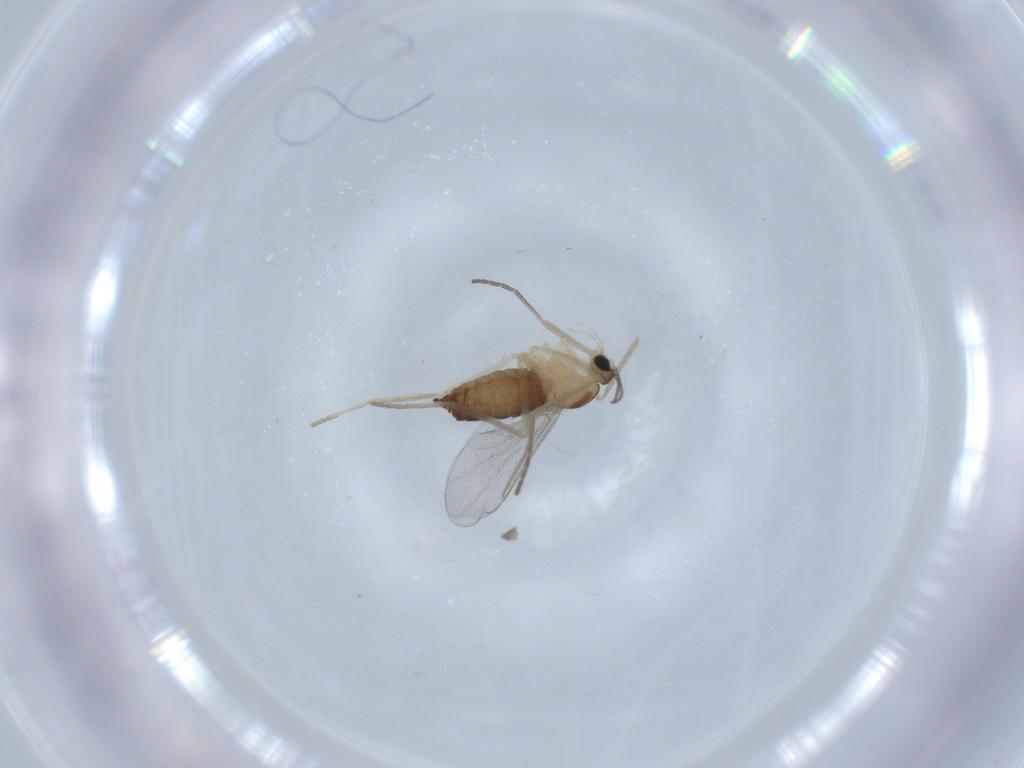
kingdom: Animalia
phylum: Arthropoda
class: Insecta
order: Diptera
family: Cecidomyiidae
